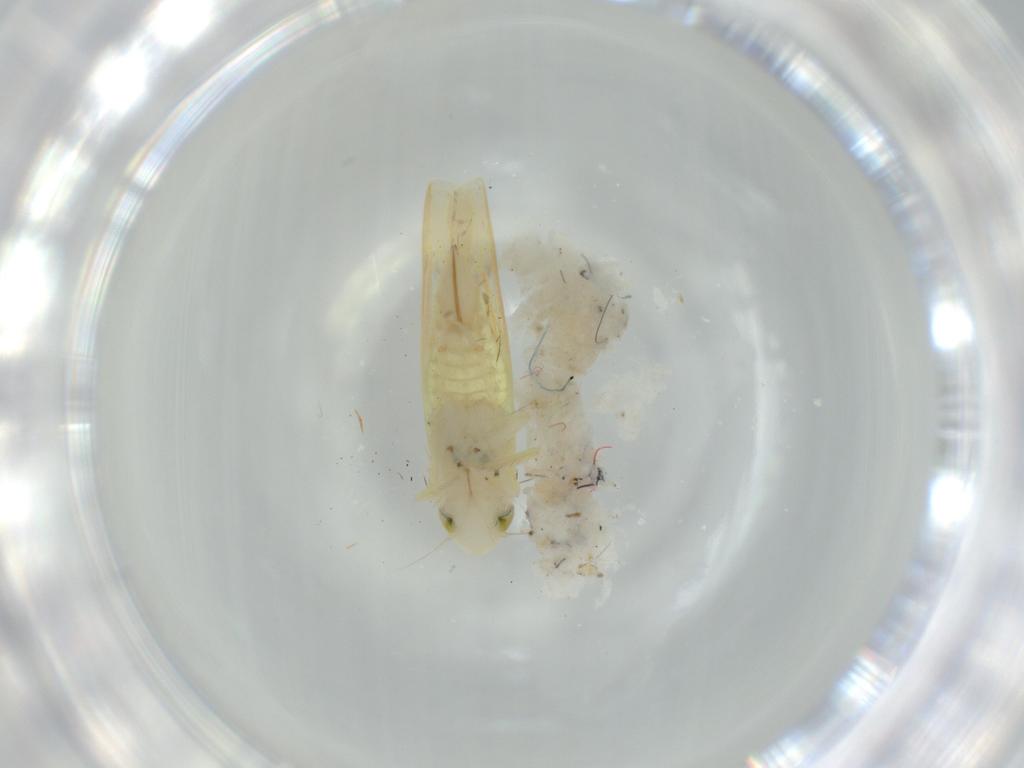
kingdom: Animalia
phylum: Arthropoda
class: Insecta
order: Hemiptera
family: Cicadellidae
